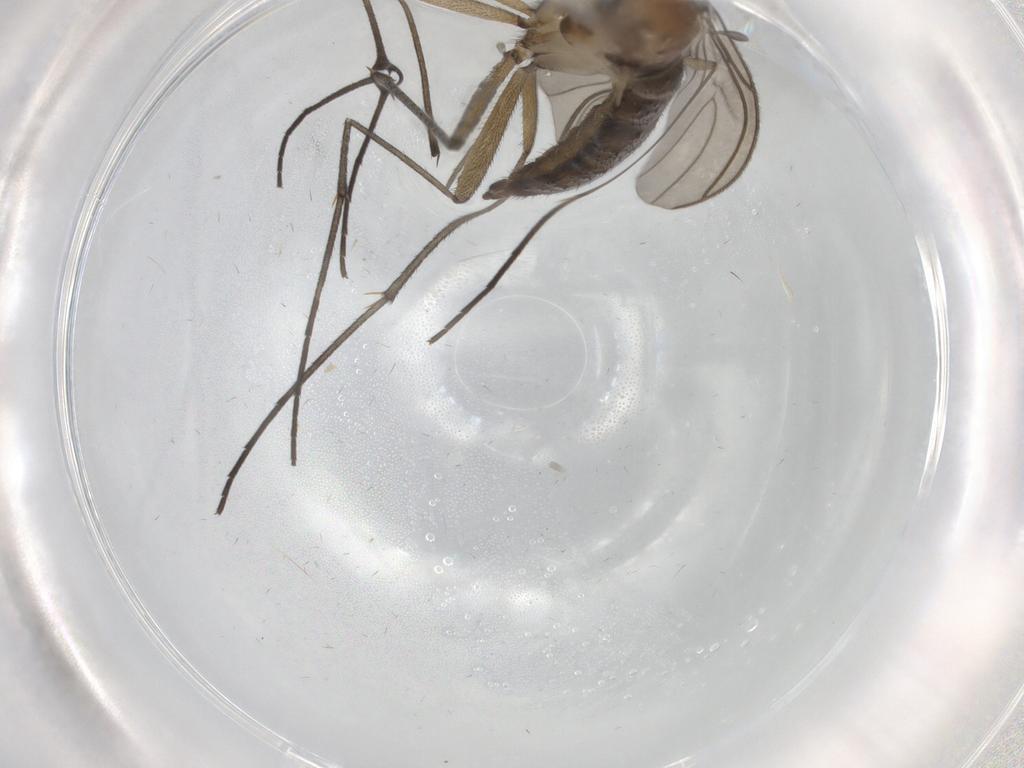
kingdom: Animalia
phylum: Arthropoda
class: Insecta
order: Diptera
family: Sciaridae
